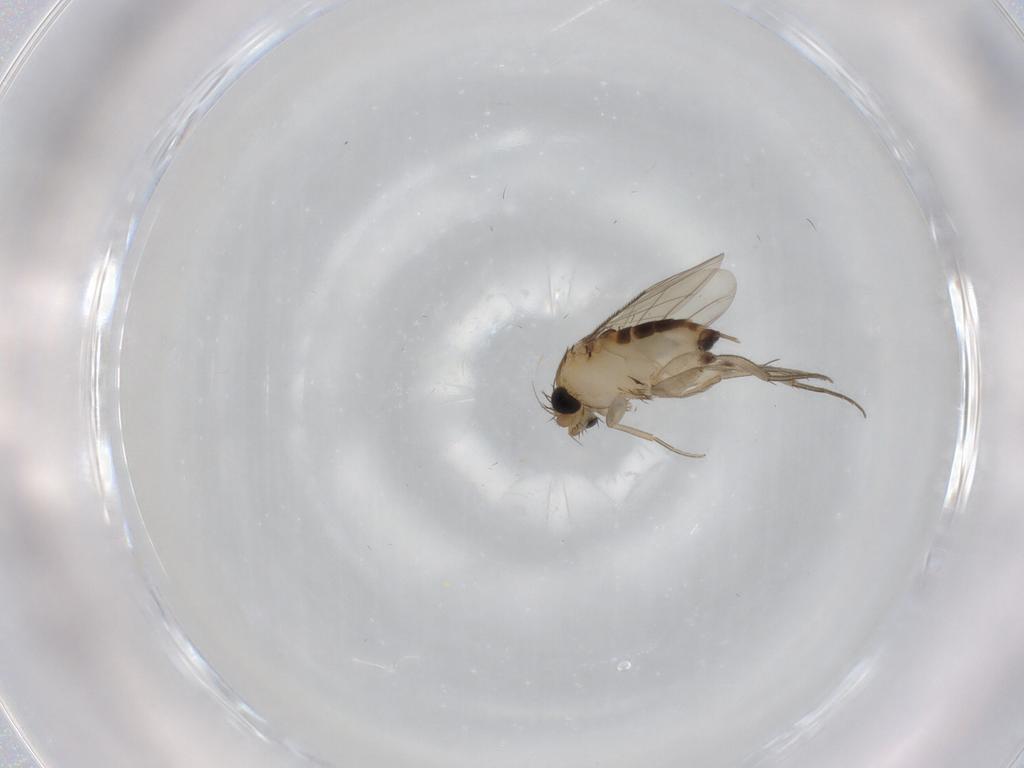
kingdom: Animalia
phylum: Arthropoda
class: Insecta
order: Diptera
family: Phoridae
